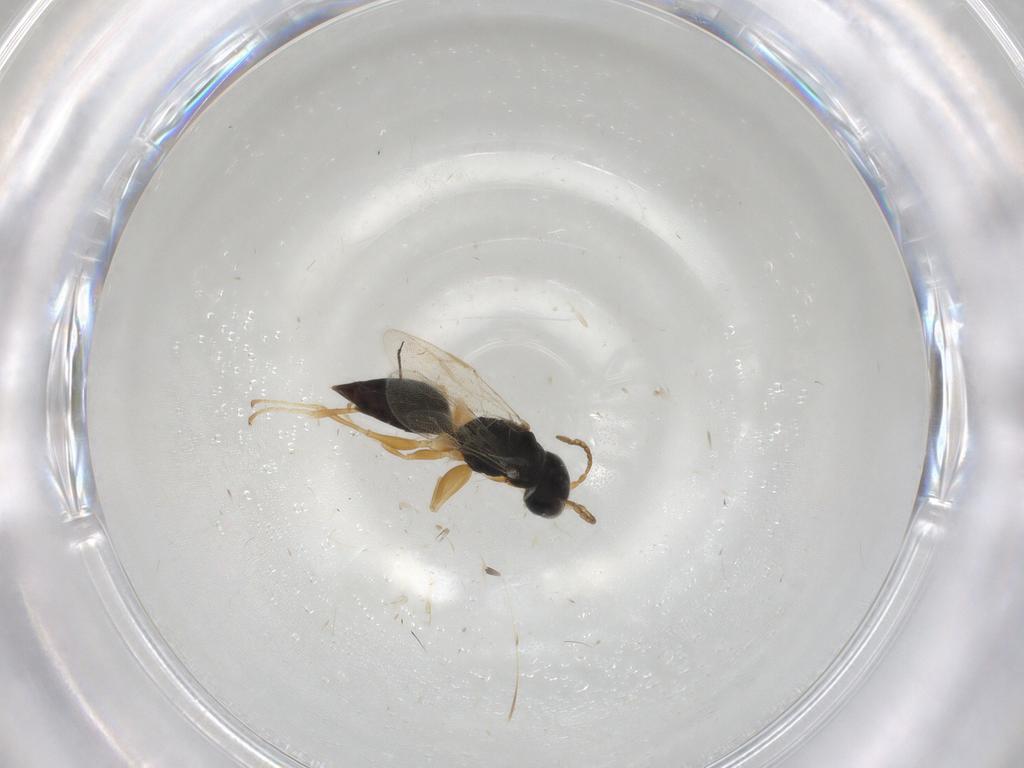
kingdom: Animalia
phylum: Arthropoda
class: Insecta
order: Hymenoptera
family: Dryinidae
